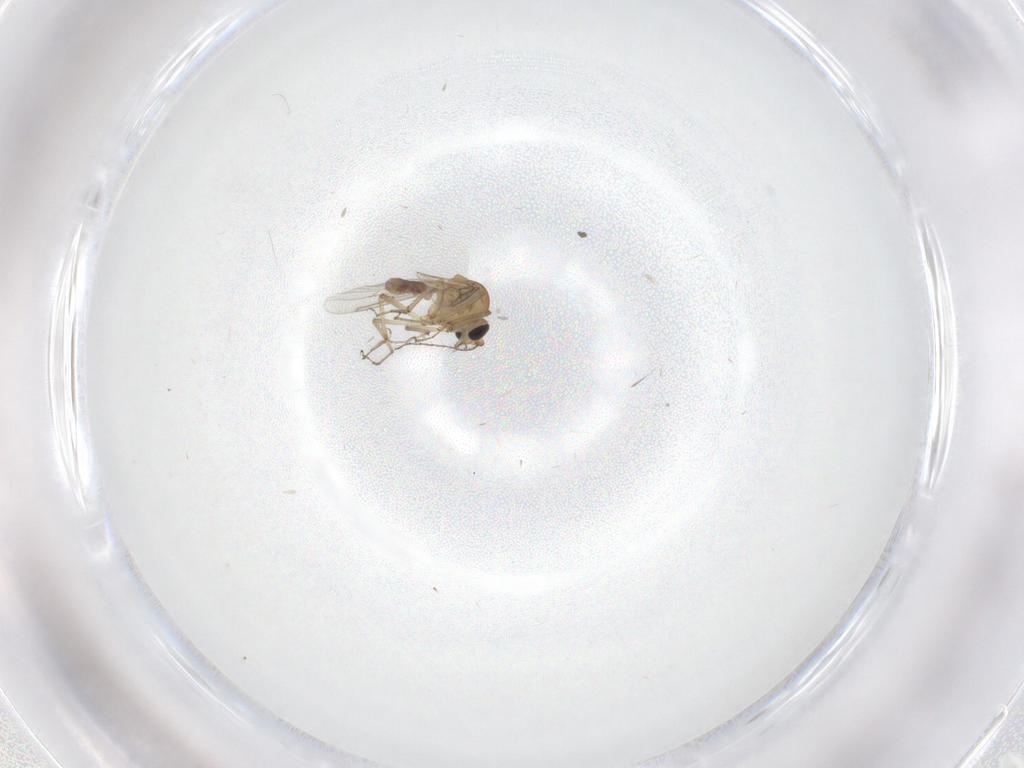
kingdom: Animalia
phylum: Arthropoda
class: Insecta
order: Diptera
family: Ceratopogonidae
